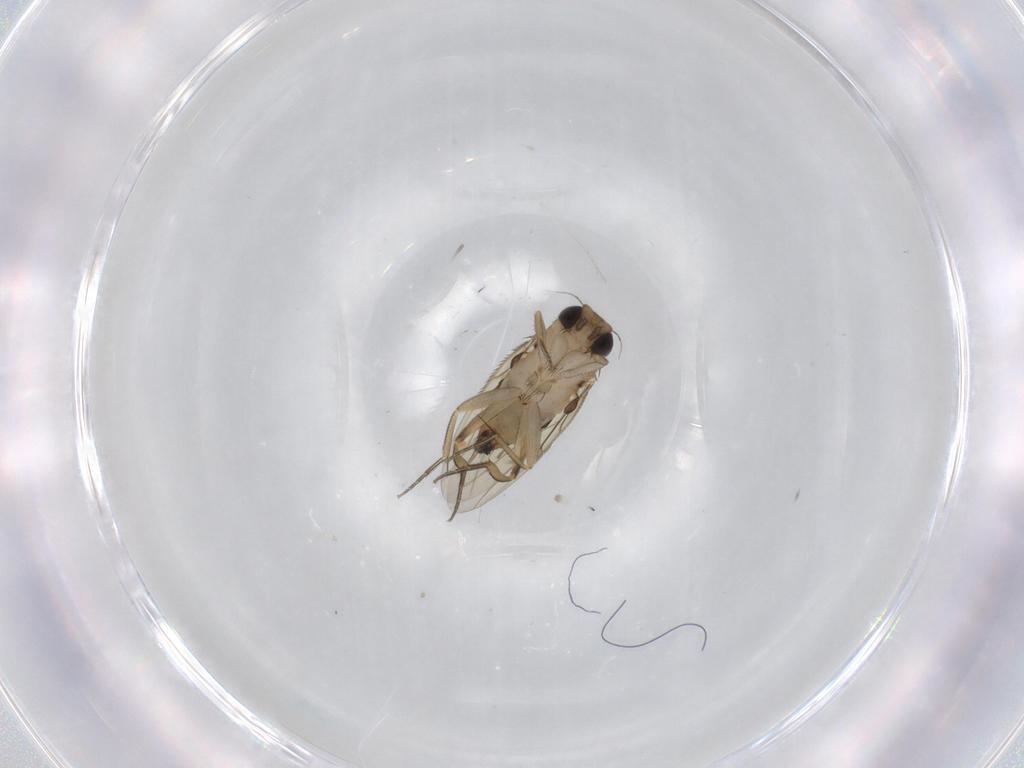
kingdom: Animalia
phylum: Arthropoda
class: Insecta
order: Diptera
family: Phoridae
